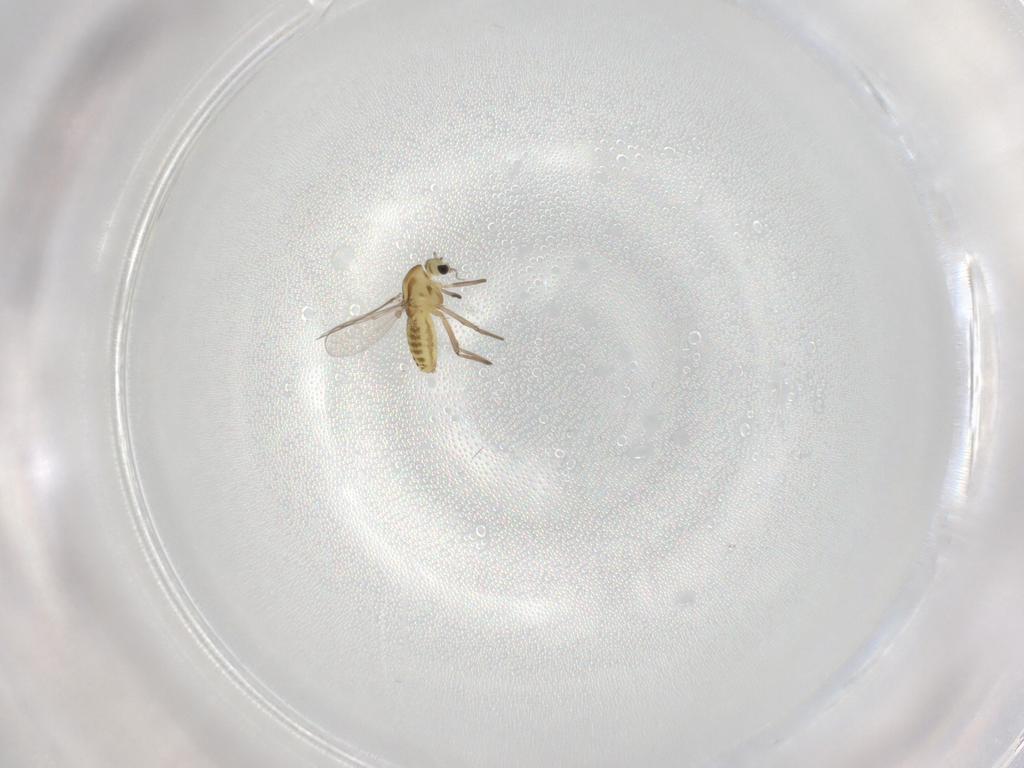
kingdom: Animalia
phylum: Arthropoda
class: Insecta
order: Diptera
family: Chironomidae
